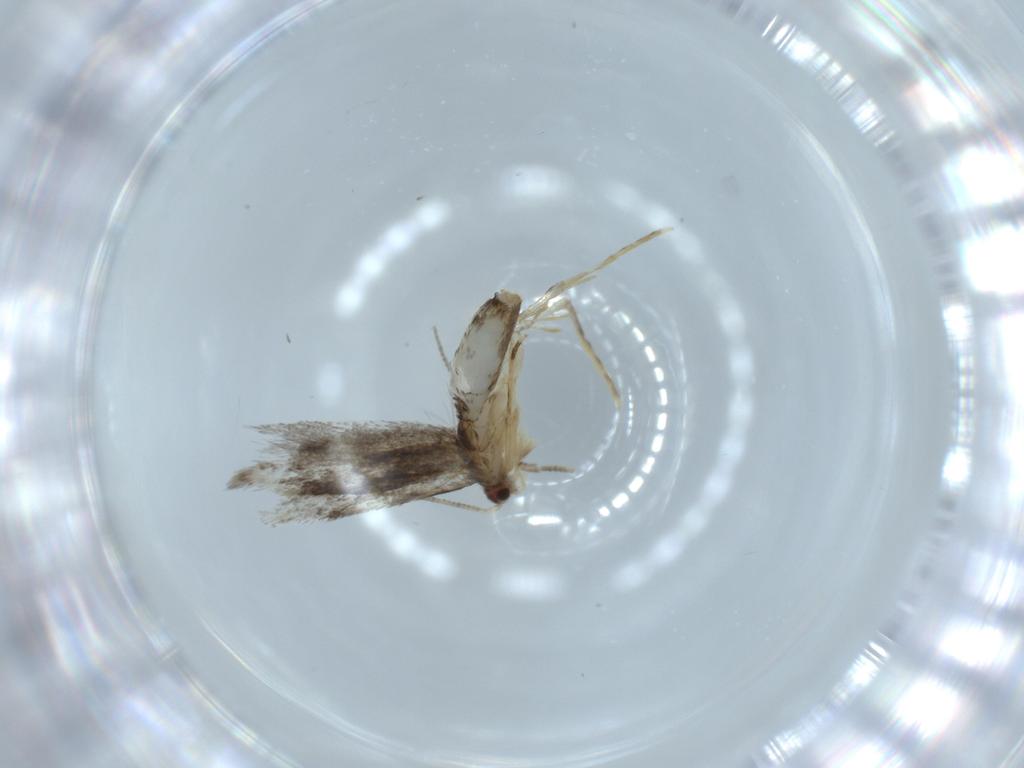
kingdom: Animalia
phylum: Arthropoda
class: Insecta
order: Lepidoptera
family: Tineidae
